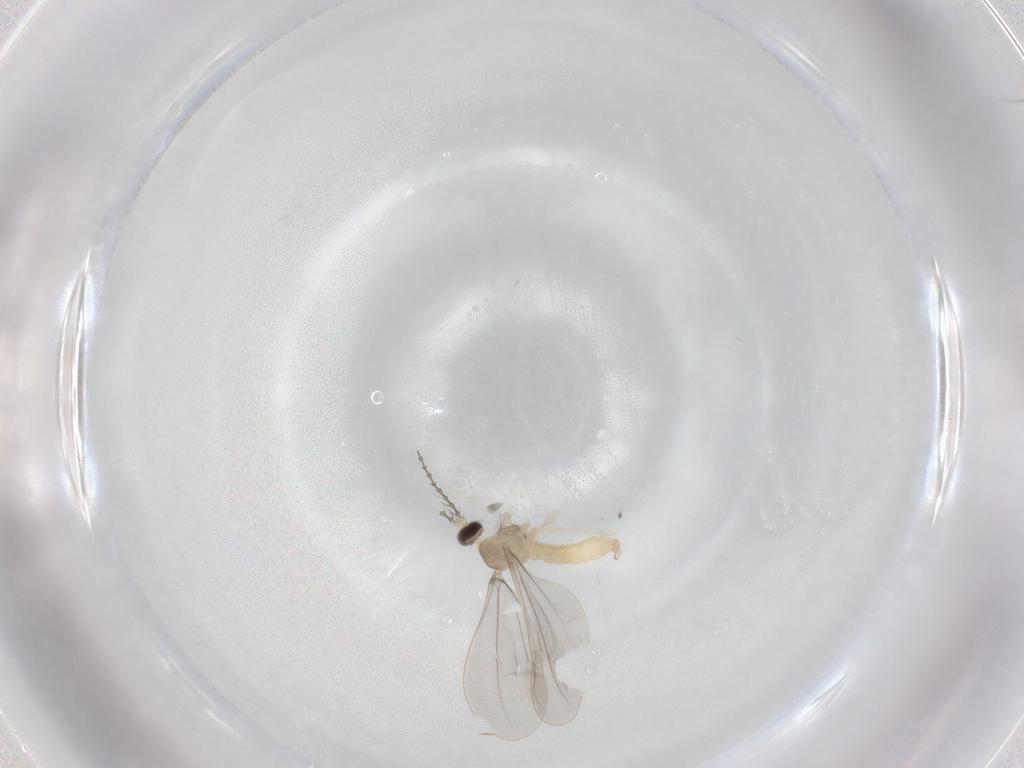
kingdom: Animalia
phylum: Arthropoda
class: Insecta
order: Diptera
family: Cecidomyiidae
